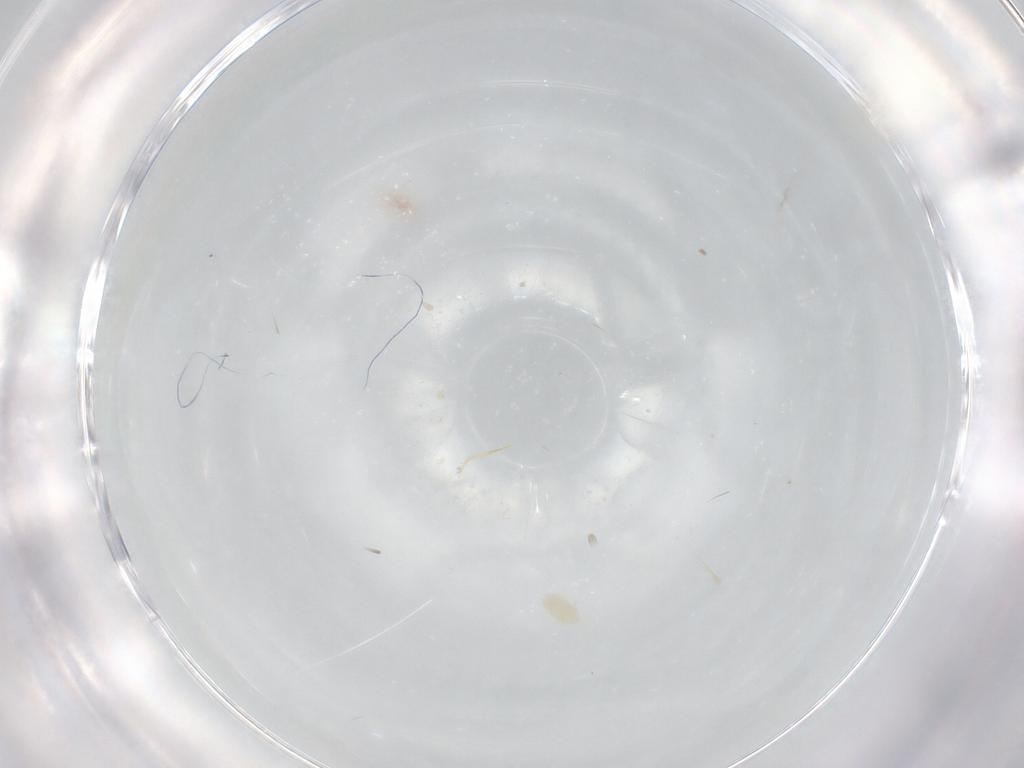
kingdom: Animalia
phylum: Arthropoda
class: Arachnida
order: Trombidiformes
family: Eupodidae
